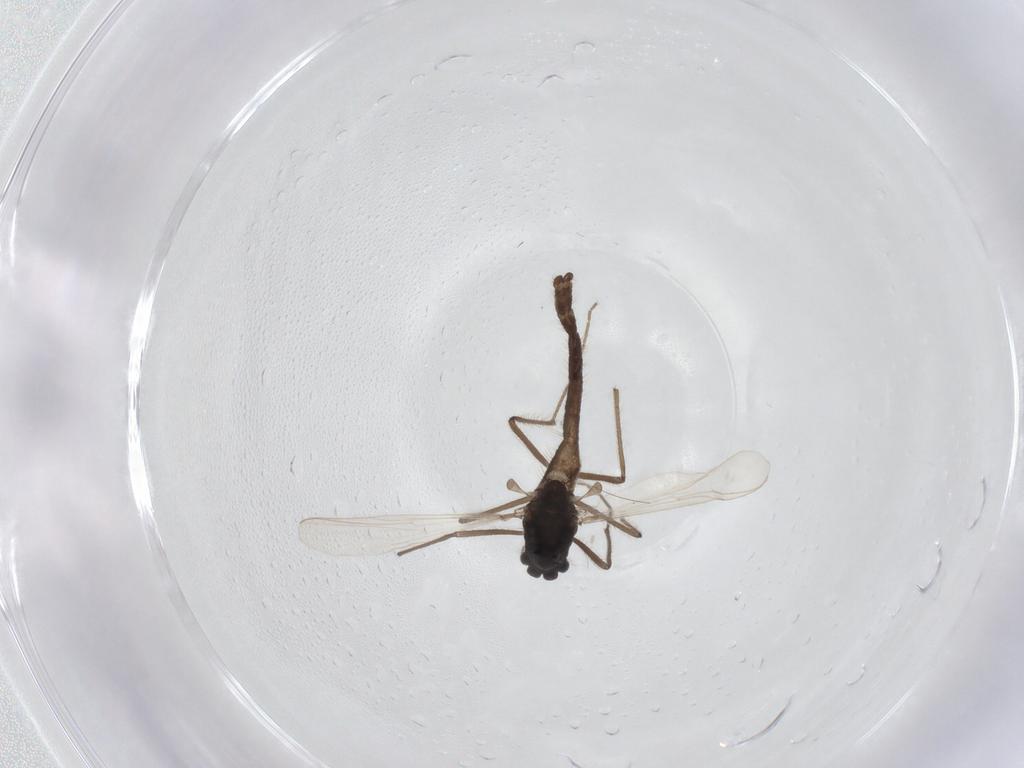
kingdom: Animalia
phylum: Arthropoda
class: Insecta
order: Diptera
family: Chironomidae
